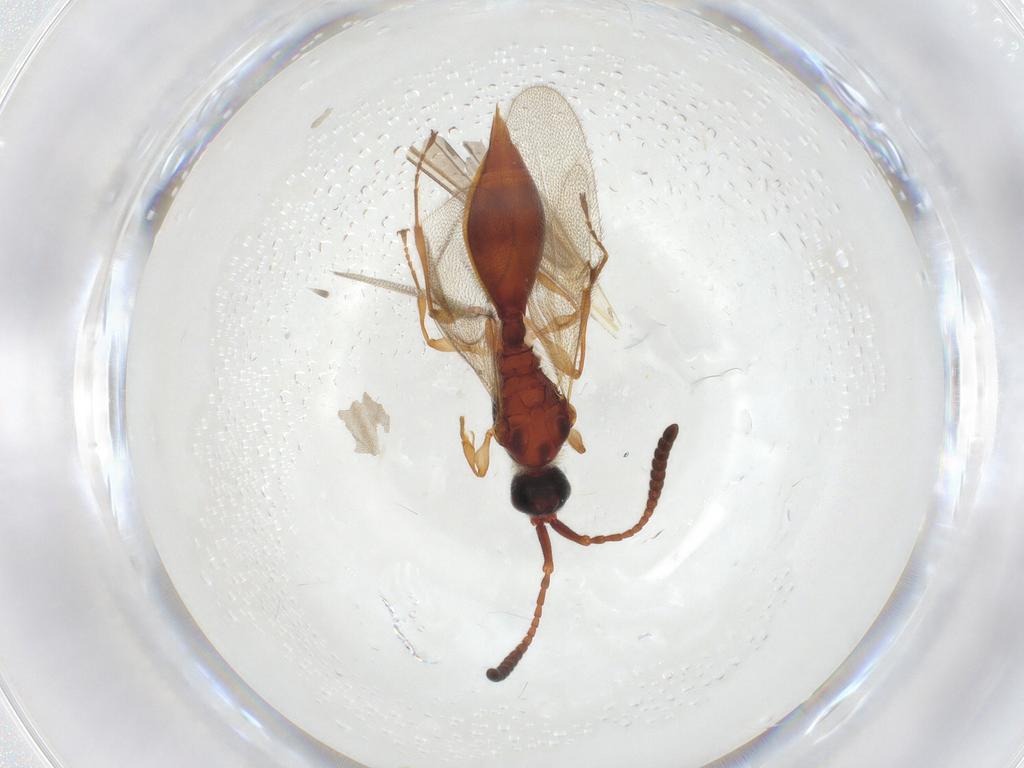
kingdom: Animalia
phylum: Arthropoda
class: Insecta
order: Hymenoptera
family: Diapriidae
